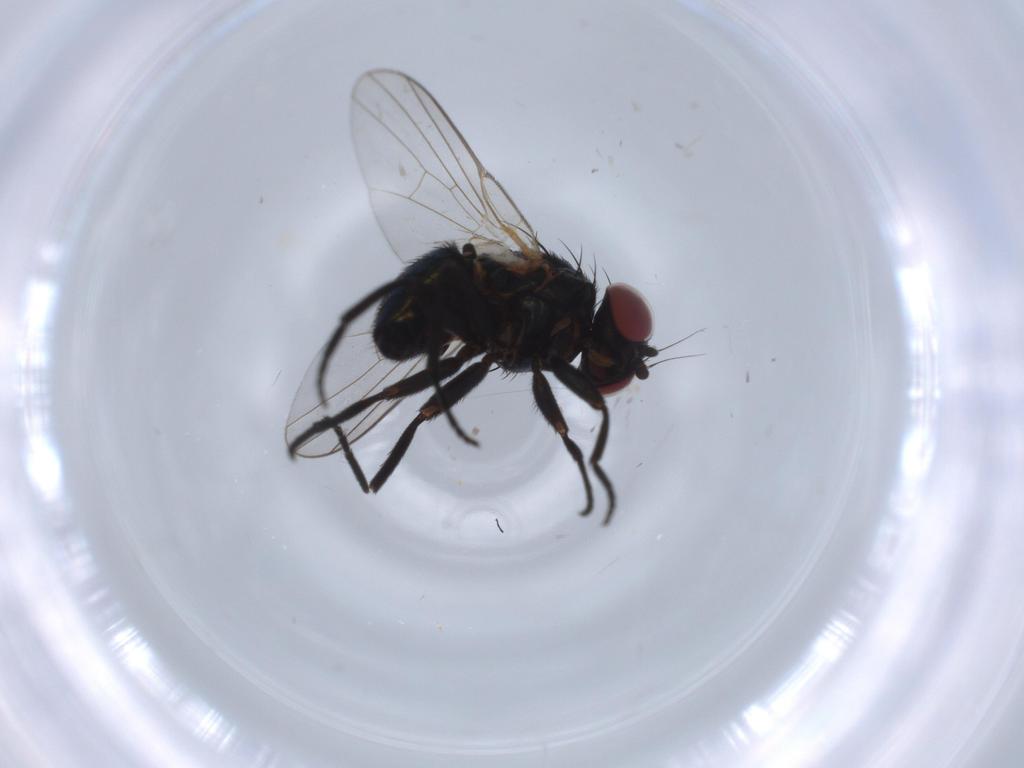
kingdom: Animalia
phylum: Arthropoda
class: Insecta
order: Diptera
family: Agromyzidae
